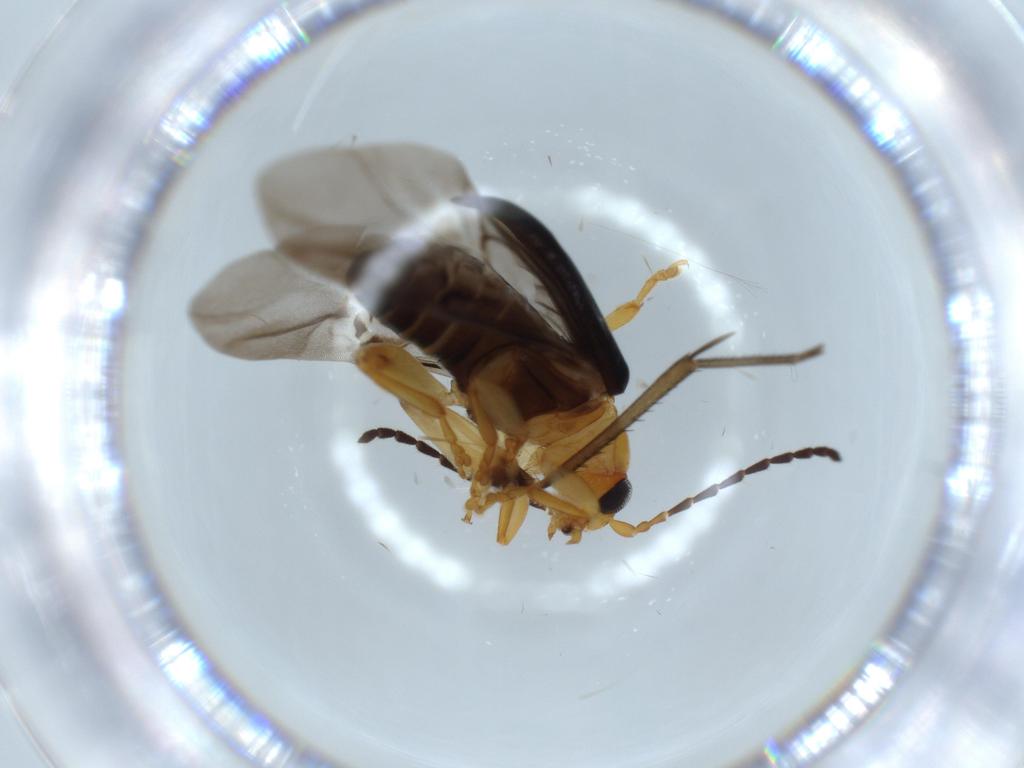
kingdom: Animalia
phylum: Arthropoda
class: Insecta
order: Coleoptera
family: Chrysomelidae
